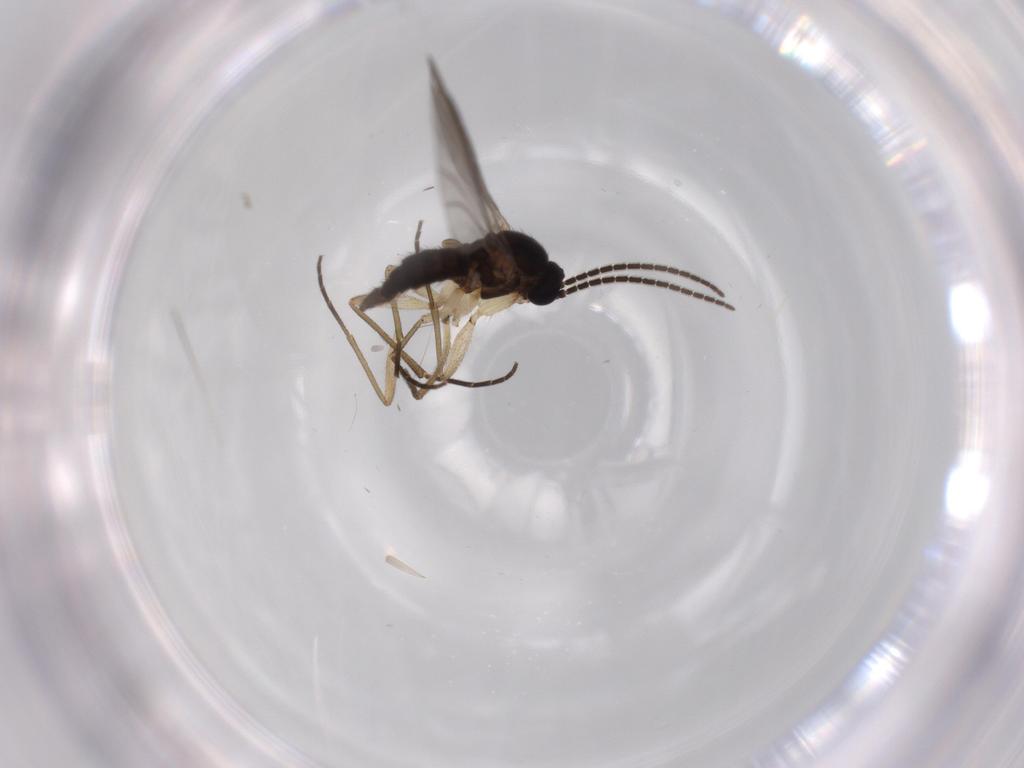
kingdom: Animalia
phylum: Arthropoda
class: Insecta
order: Diptera
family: Sciaridae
